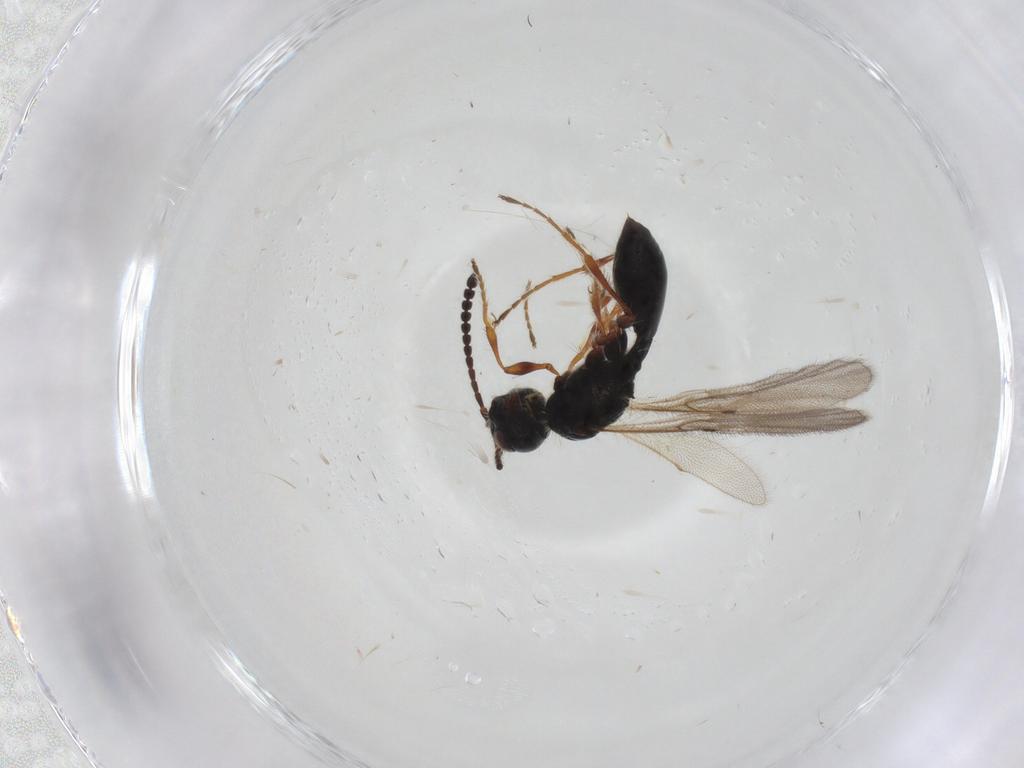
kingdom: Animalia
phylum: Arthropoda
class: Insecta
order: Hymenoptera
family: Diapriidae
